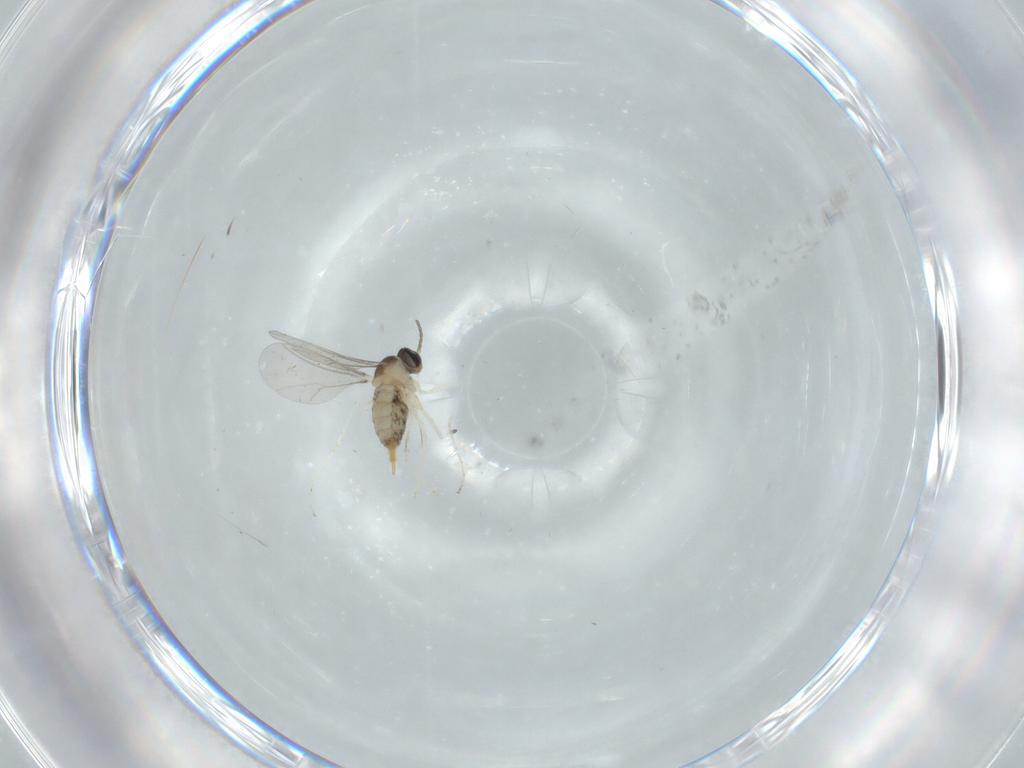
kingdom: Animalia
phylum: Arthropoda
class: Insecta
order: Diptera
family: Cecidomyiidae
